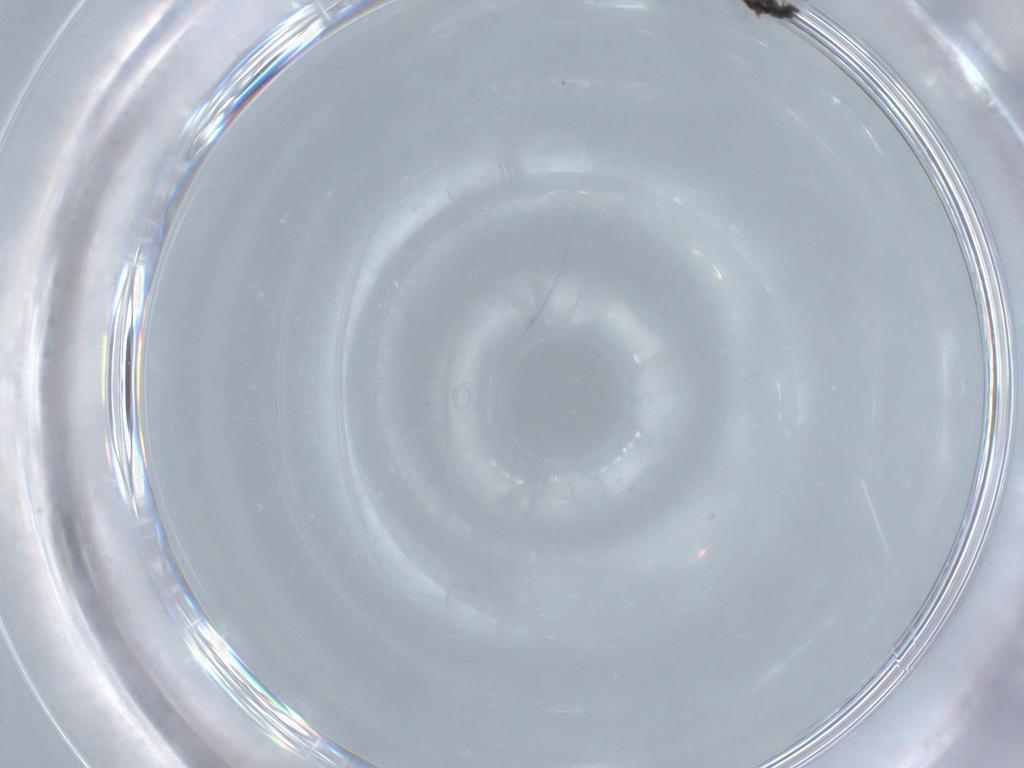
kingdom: Animalia
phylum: Arthropoda
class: Insecta
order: Hymenoptera
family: Mymaridae
